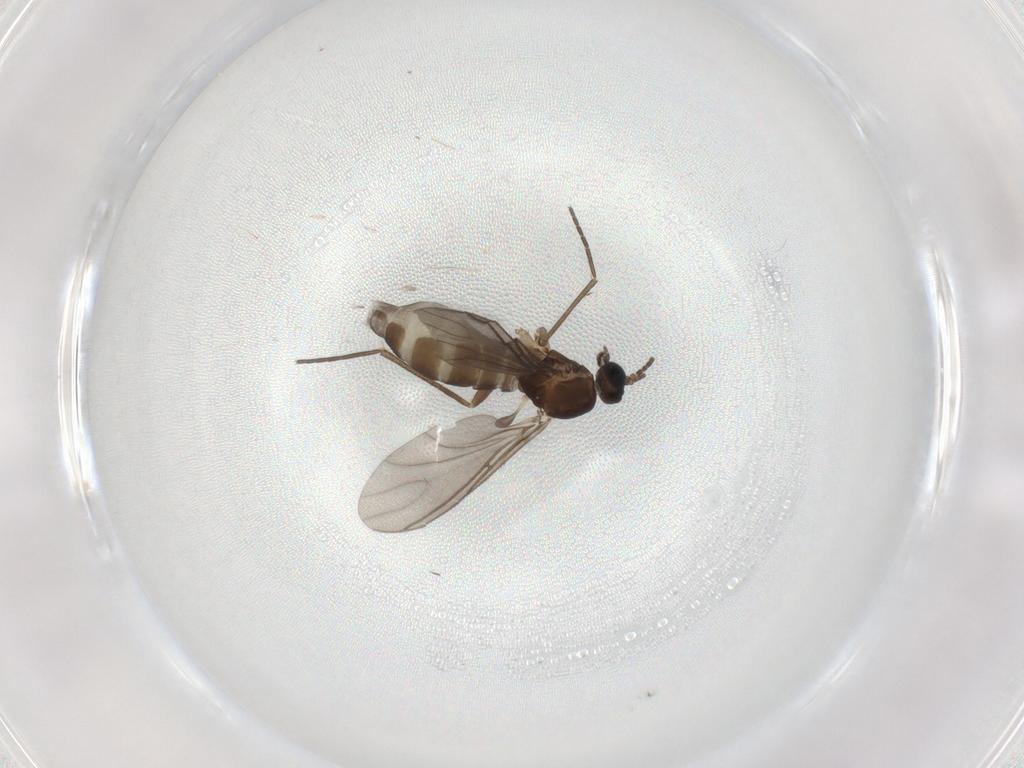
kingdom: Animalia
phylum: Arthropoda
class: Insecta
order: Diptera
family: Sciaridae
